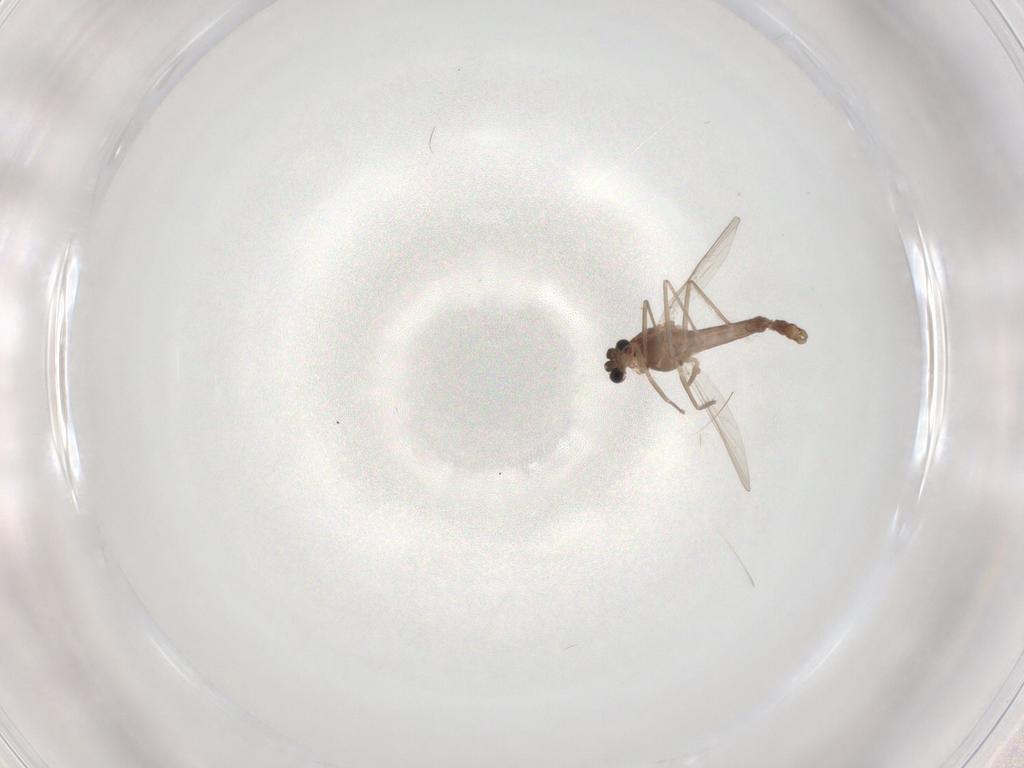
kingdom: Animalia
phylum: Arthropoda
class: Insecta
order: Diptera
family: Chironomidae
